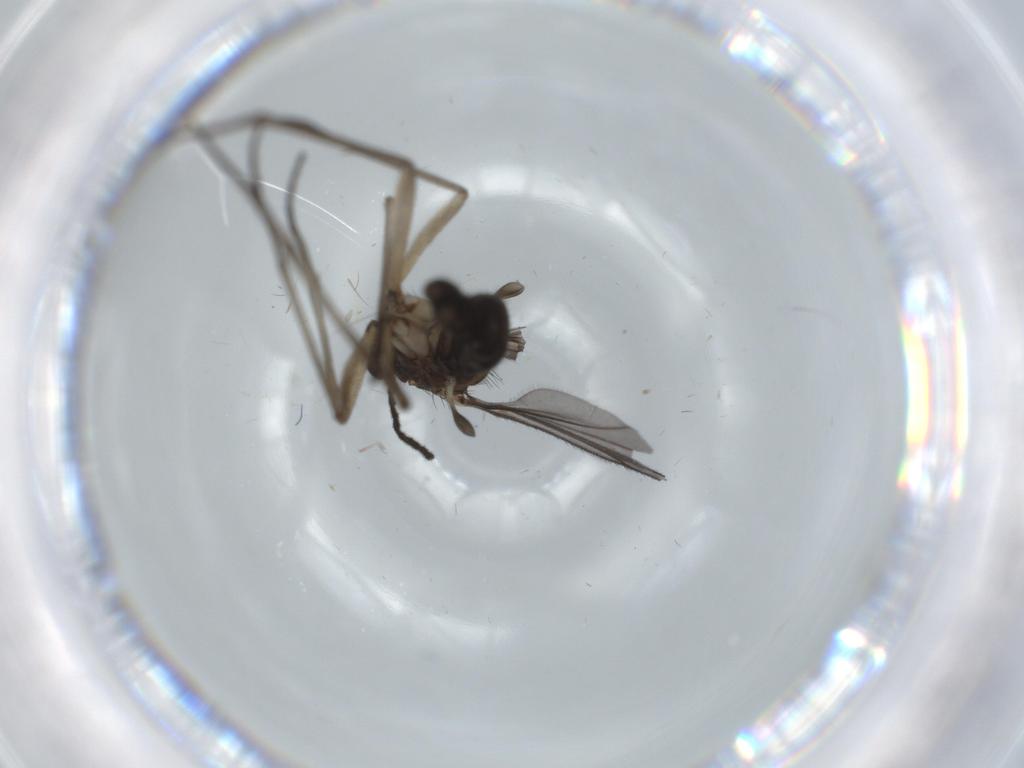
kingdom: Animalia
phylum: Arthropoda
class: Insecta
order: Diptera
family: Sciaridae
